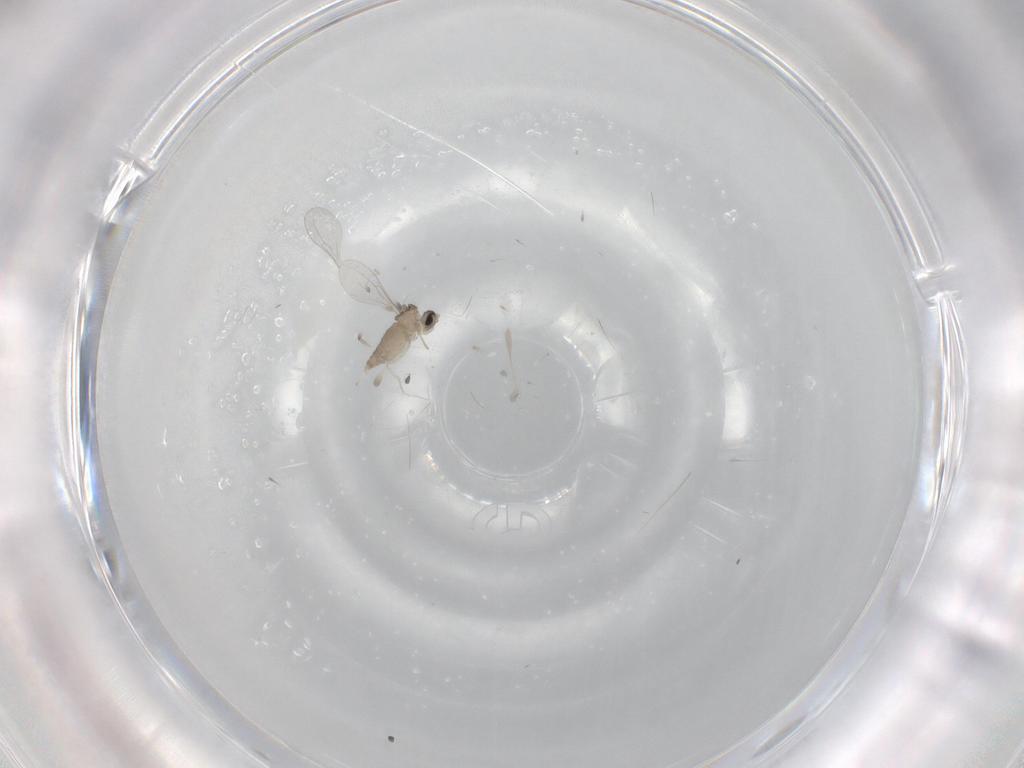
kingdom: Animalia
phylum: Arthropoda
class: Insecta
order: Diptera
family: Cecidomyiidae
